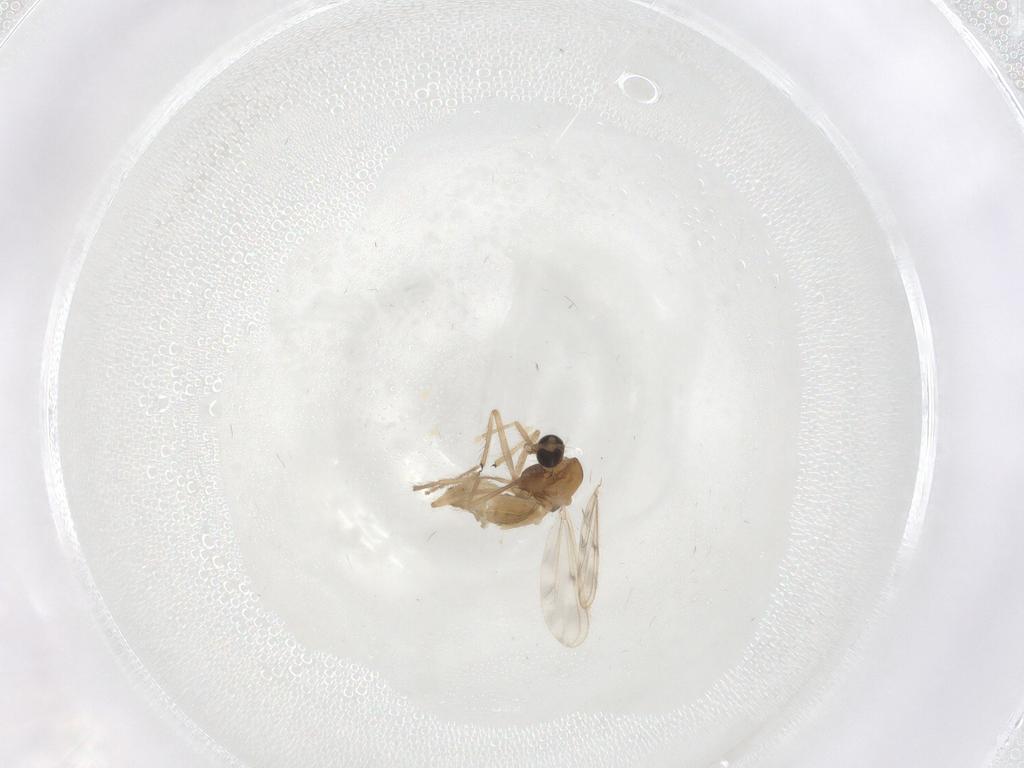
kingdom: Animalia
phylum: Arthropoda
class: Insecta
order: Diptera
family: Chironomidae
